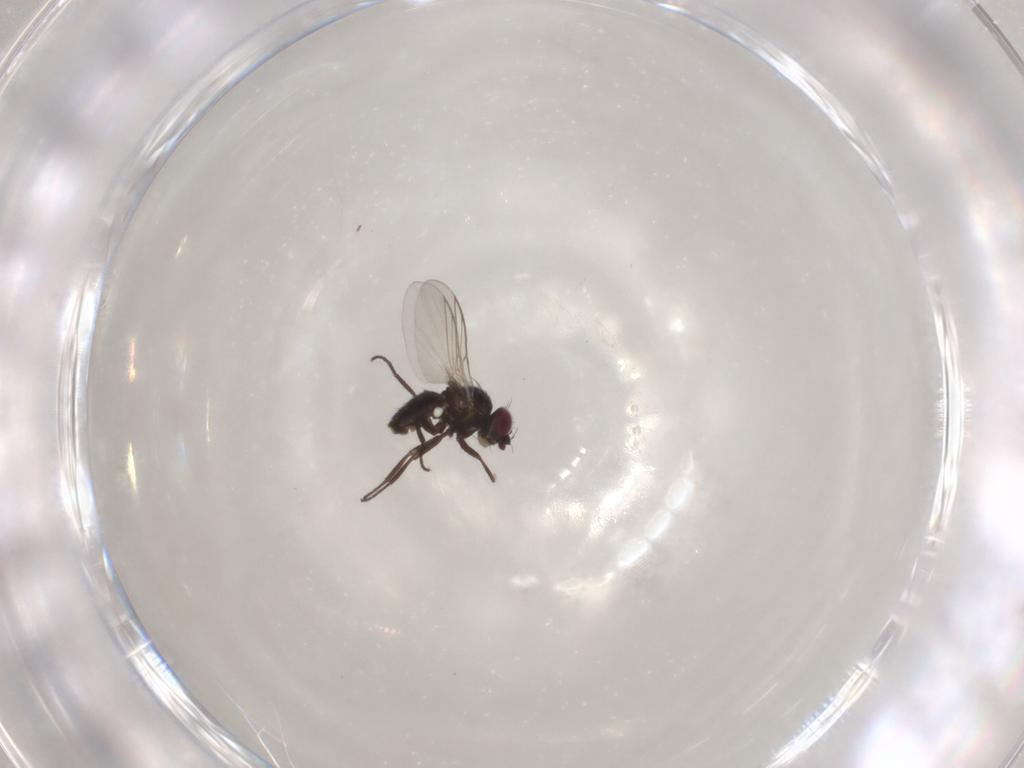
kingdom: Animalia
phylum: Arthropoda
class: Insecta
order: Diptera
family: Agromyzidae
